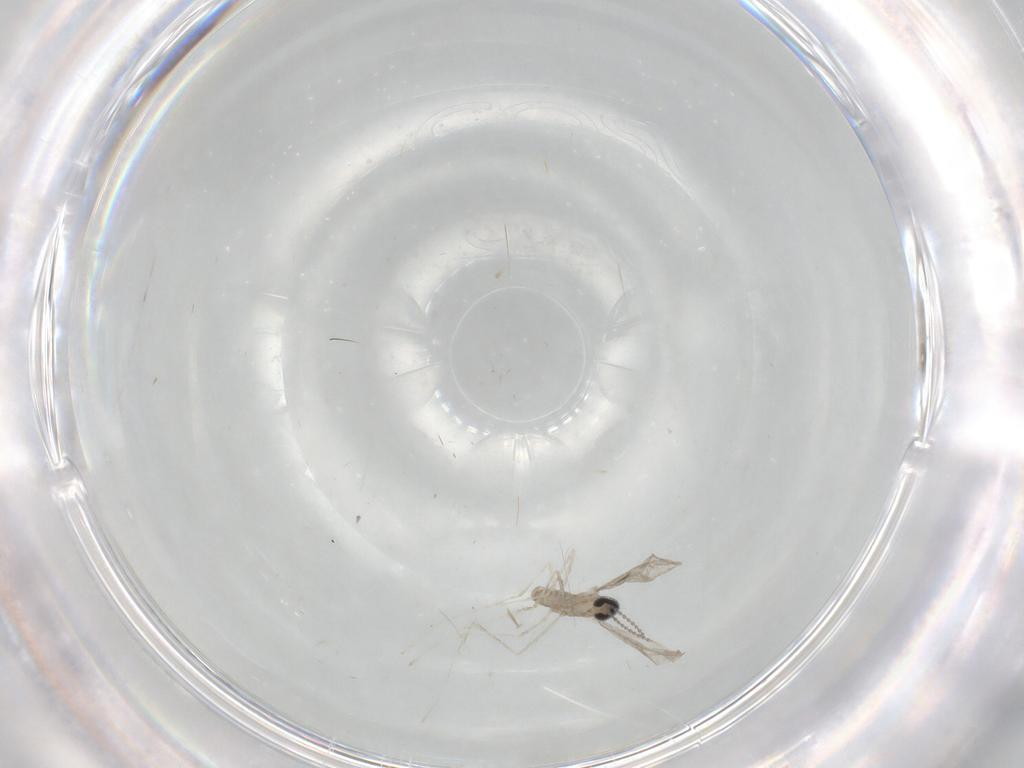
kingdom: Animalia
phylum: Arthropoda
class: Insecta
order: Diptera
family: Cecidomyiidae
